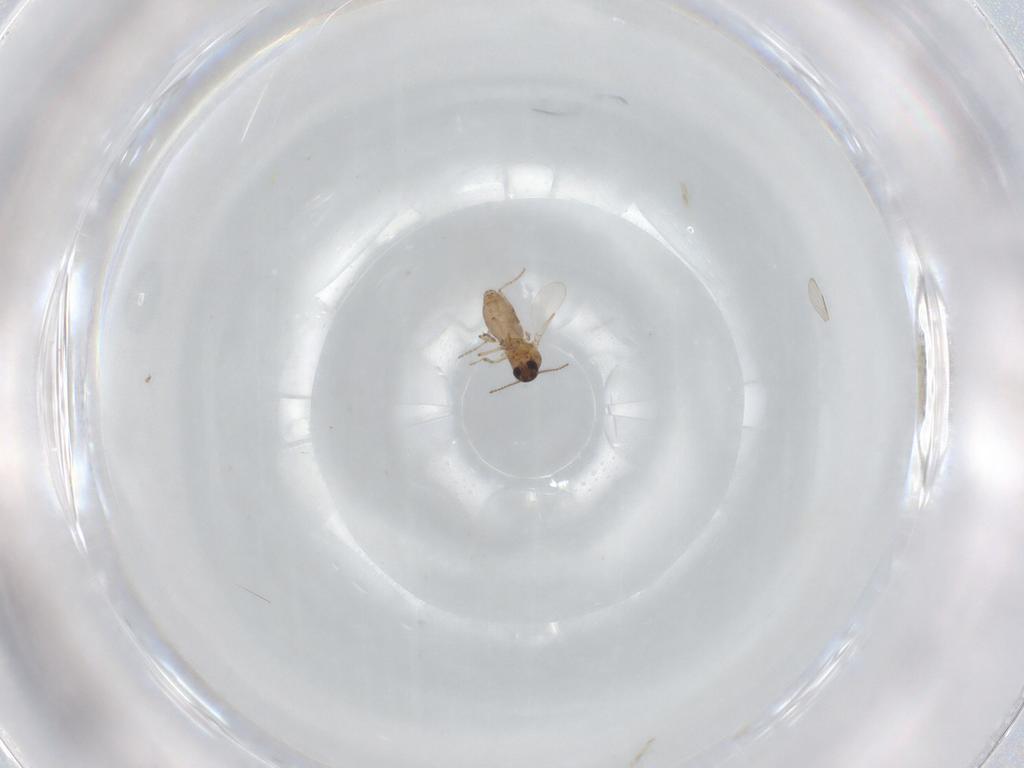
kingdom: Animalia
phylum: Arthropoda
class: Insecta
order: Diptera
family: Ceratopogonidae
